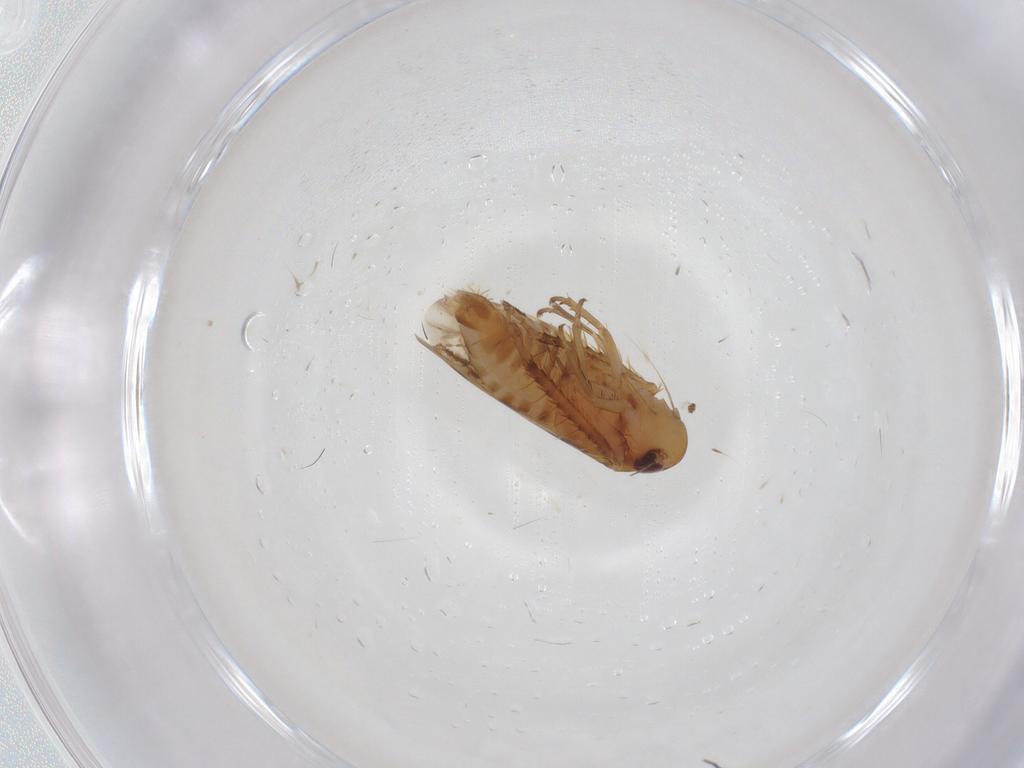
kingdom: Animalia
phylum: Arthropoda
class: Insecta
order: Hemiptera
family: Cicadellidae
